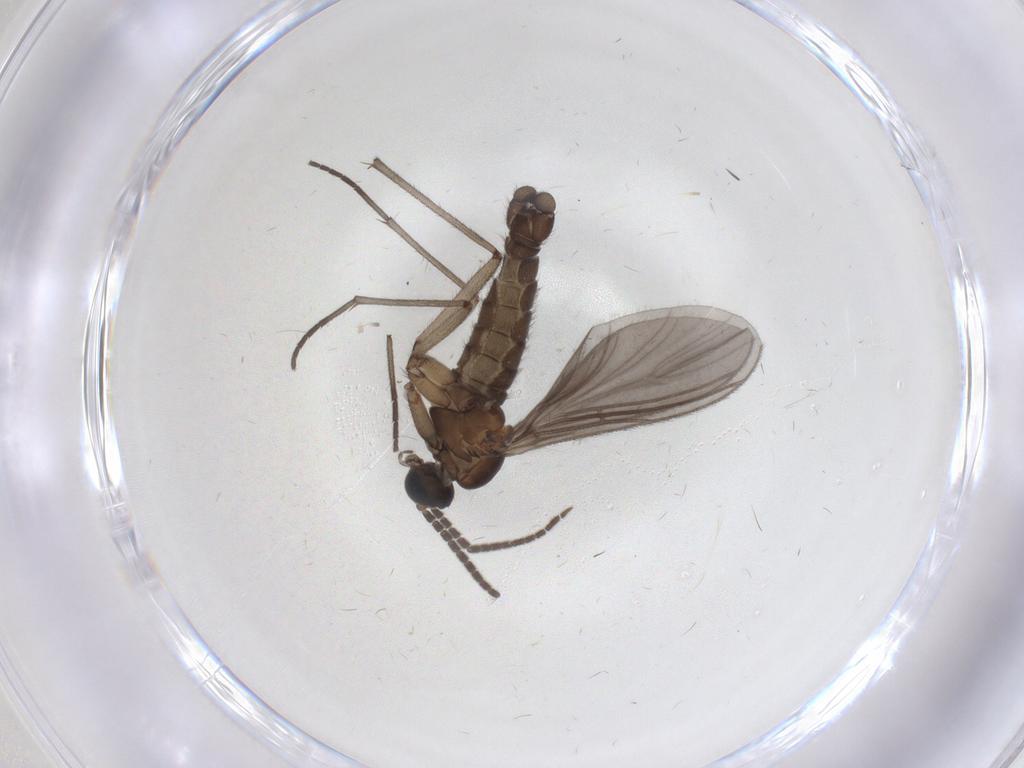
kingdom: Animalia
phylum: Arthropoda
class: Insecta
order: Diptera
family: Sciaridae
